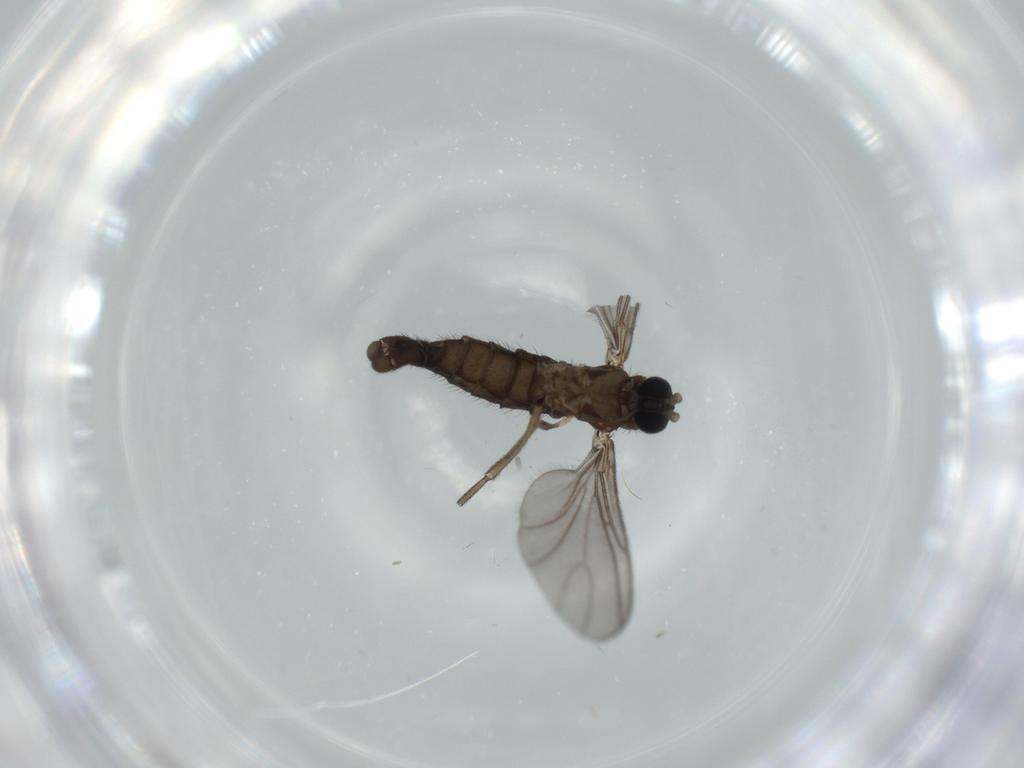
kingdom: Animalia
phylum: Arthropoda
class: Insecta
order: Diptera
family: Sciaridae
